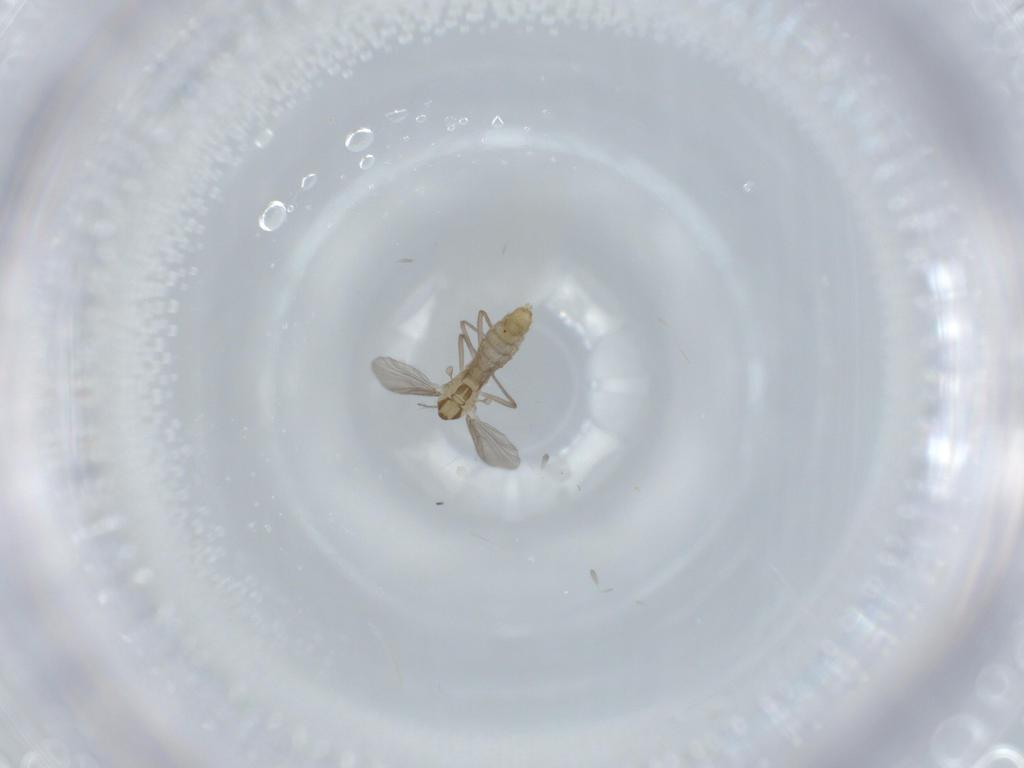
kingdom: Animalia
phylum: Arthropoda
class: Insecta
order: Diptera
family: Chironomidae
